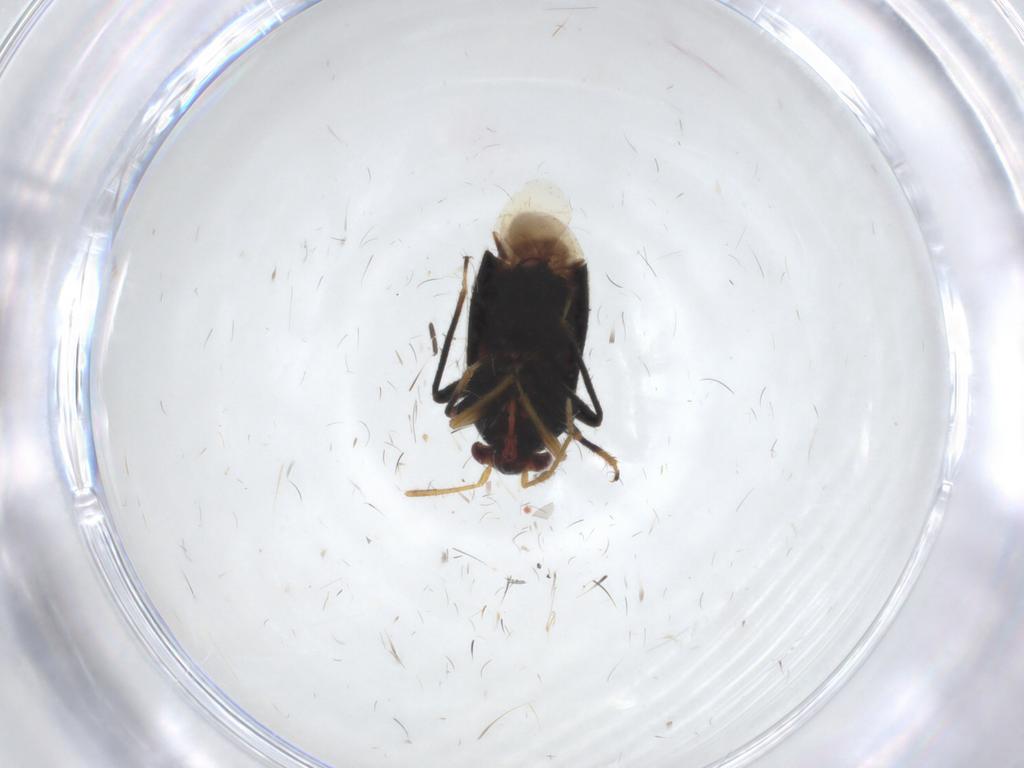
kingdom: Animalia
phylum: Arthropoda
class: Insecta
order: Hemiptera
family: Miridae
